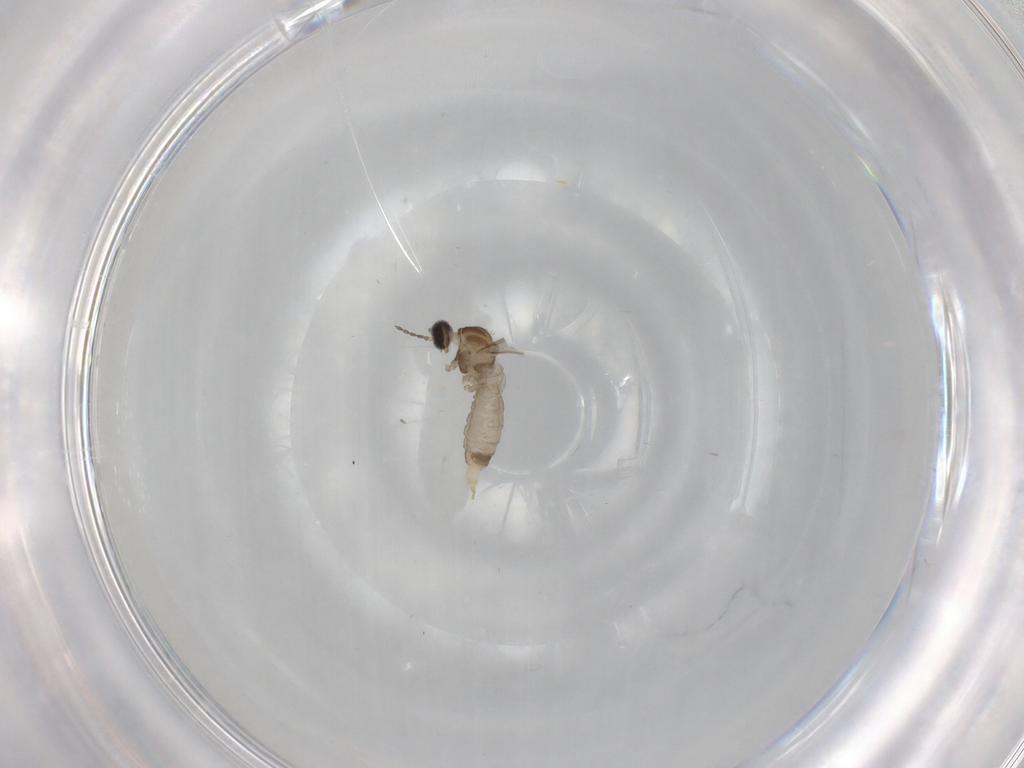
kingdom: Animalia
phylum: Arthropoda
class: Insecta
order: Diptera
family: Cecidomyiidae
